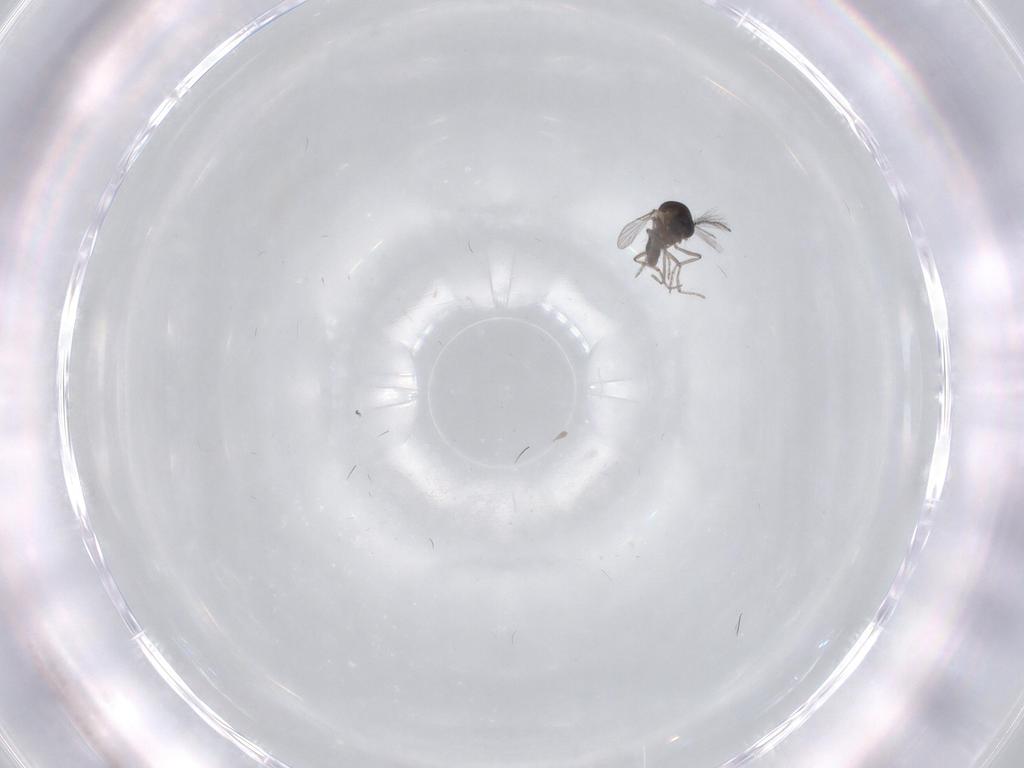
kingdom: Animalia
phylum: Arthropoda
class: Insecta
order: Diptera
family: Ceratopogonidae
